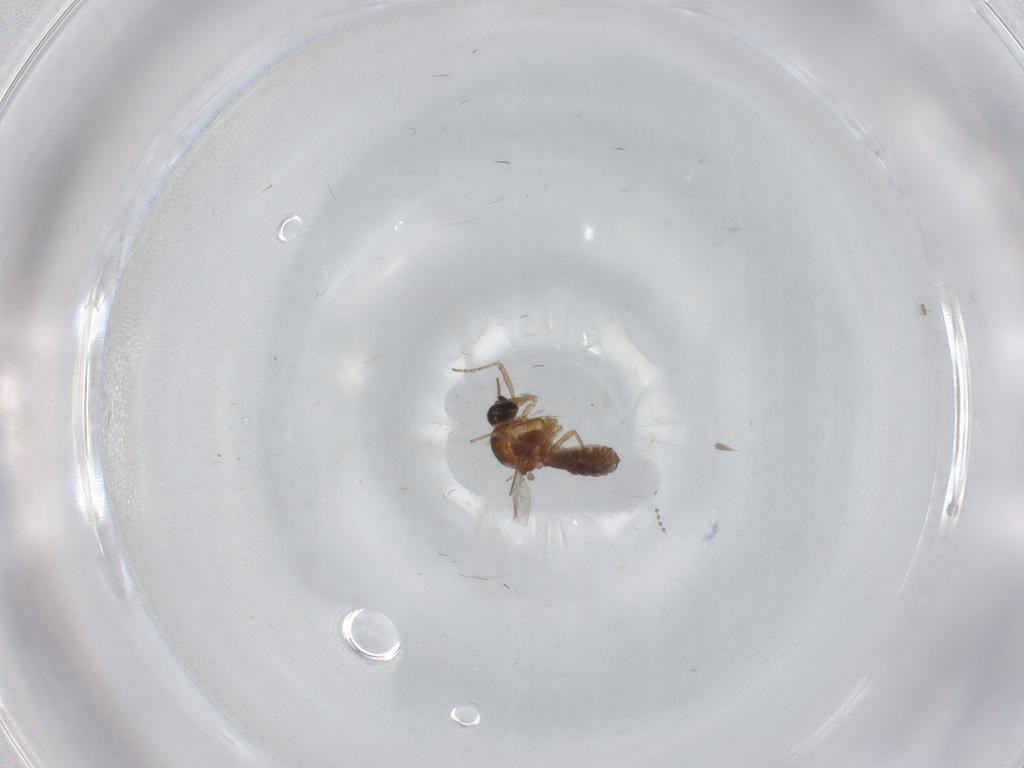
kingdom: Animalia
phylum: Arthropoda
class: Insecta
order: Diptera
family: Psychodidae
